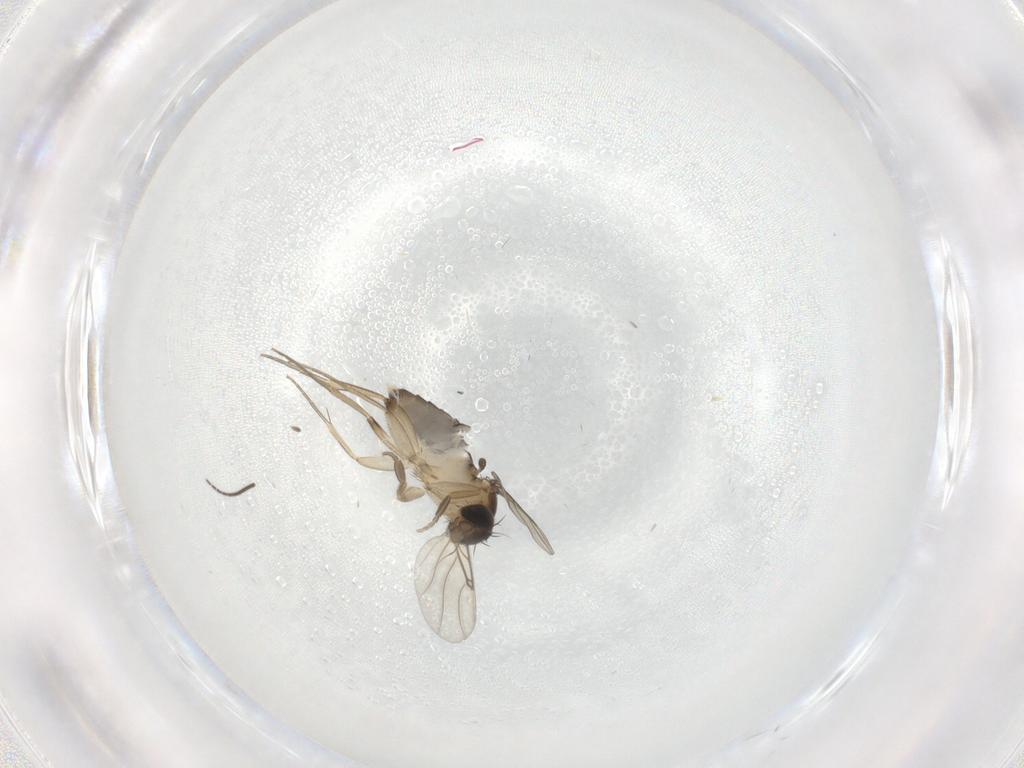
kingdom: Animalia
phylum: Arthropoda
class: Insecta
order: Diptera
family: Phoridae
